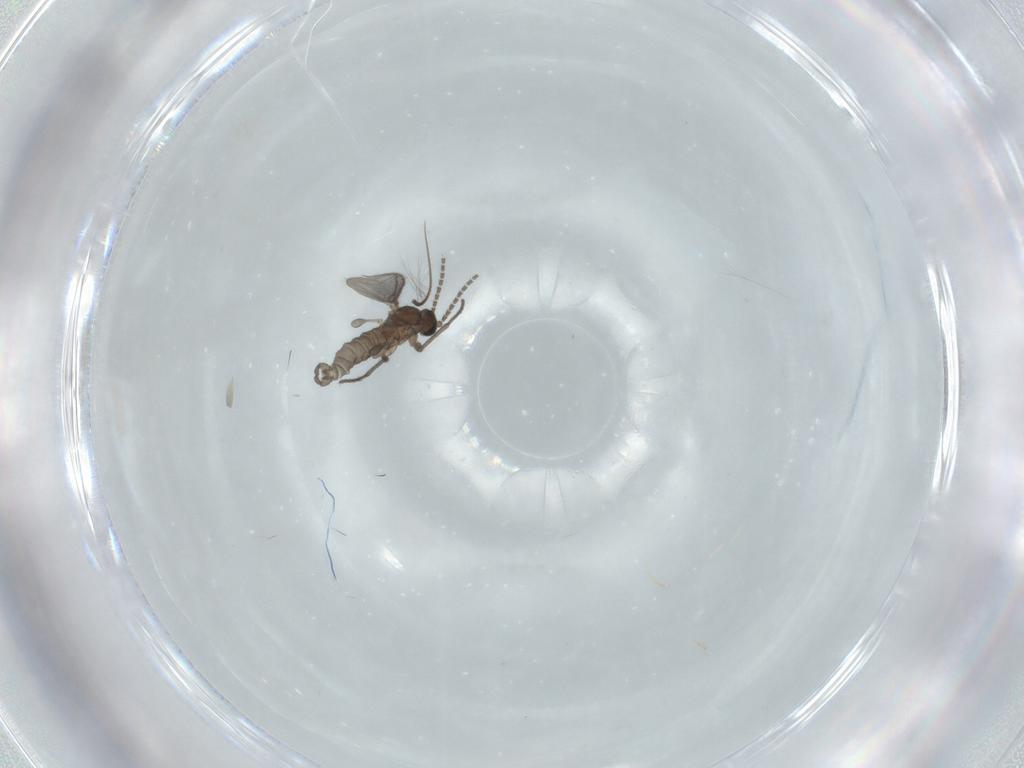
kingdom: Animalia
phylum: Arthropoda
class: Insecta
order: Diptera
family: Sciaridae
